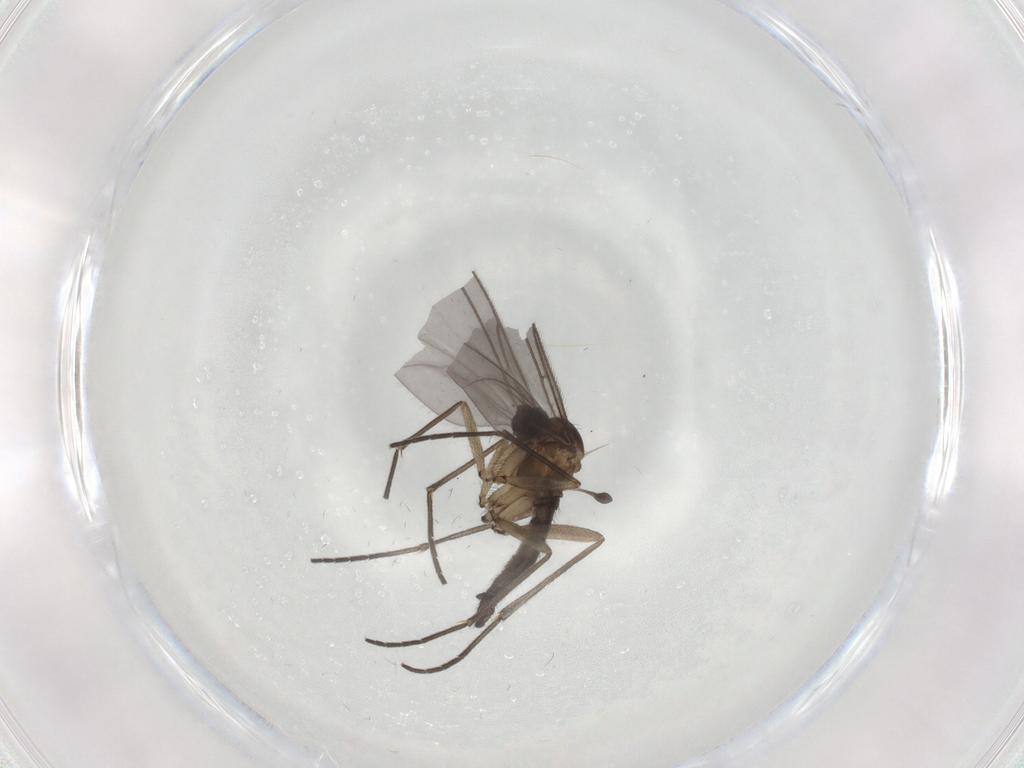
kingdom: Animalia
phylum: Arthropoda
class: Insecta
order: Diptera
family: Sciaridae
